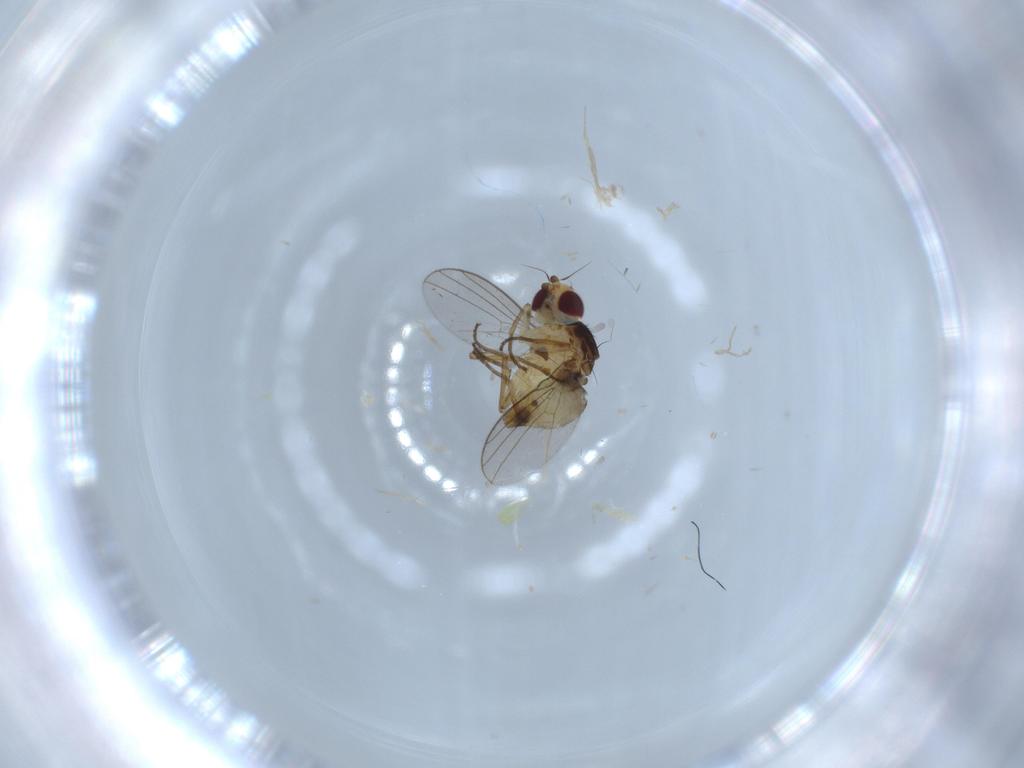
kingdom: Animalia
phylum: Arthropoda
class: Insecta
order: Diptera
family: Agromyzidae
